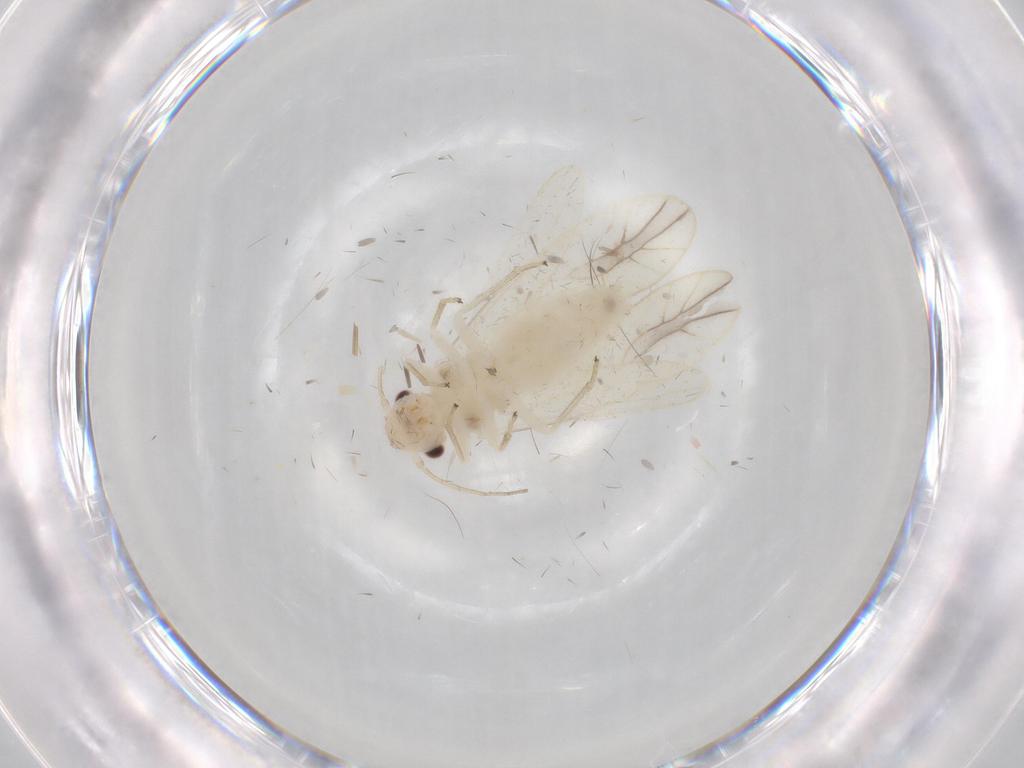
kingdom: Animalia
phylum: Arthropoda
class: Insecta
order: Psocodea
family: Caeciliusidae
